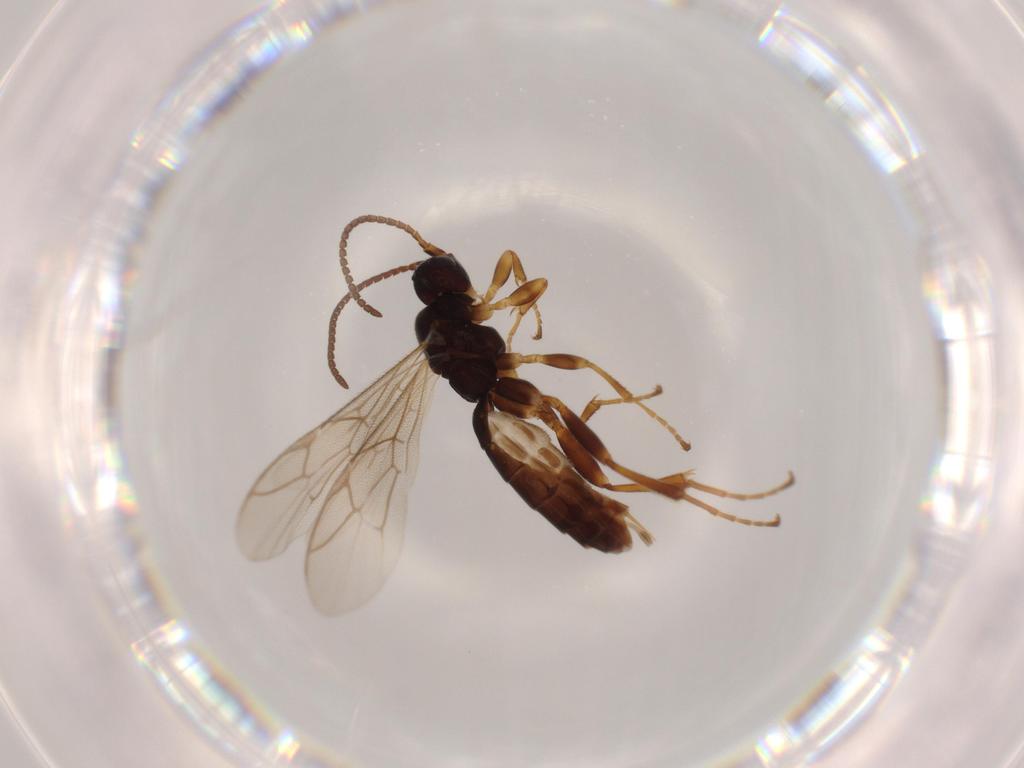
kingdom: Animalia
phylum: Arthropoda
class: Insecta
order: Hymenoptera
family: Ichneumonidae
